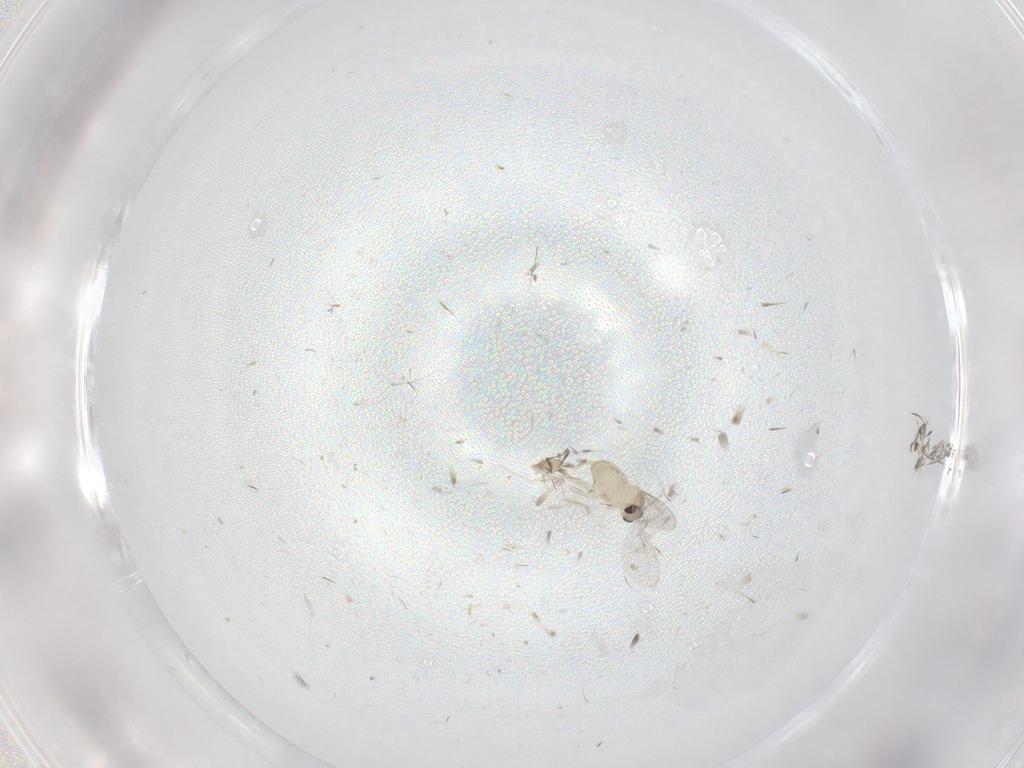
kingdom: Animalia
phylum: Arthropoda
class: Insecta
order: Diptera
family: Cecidomyiidae
